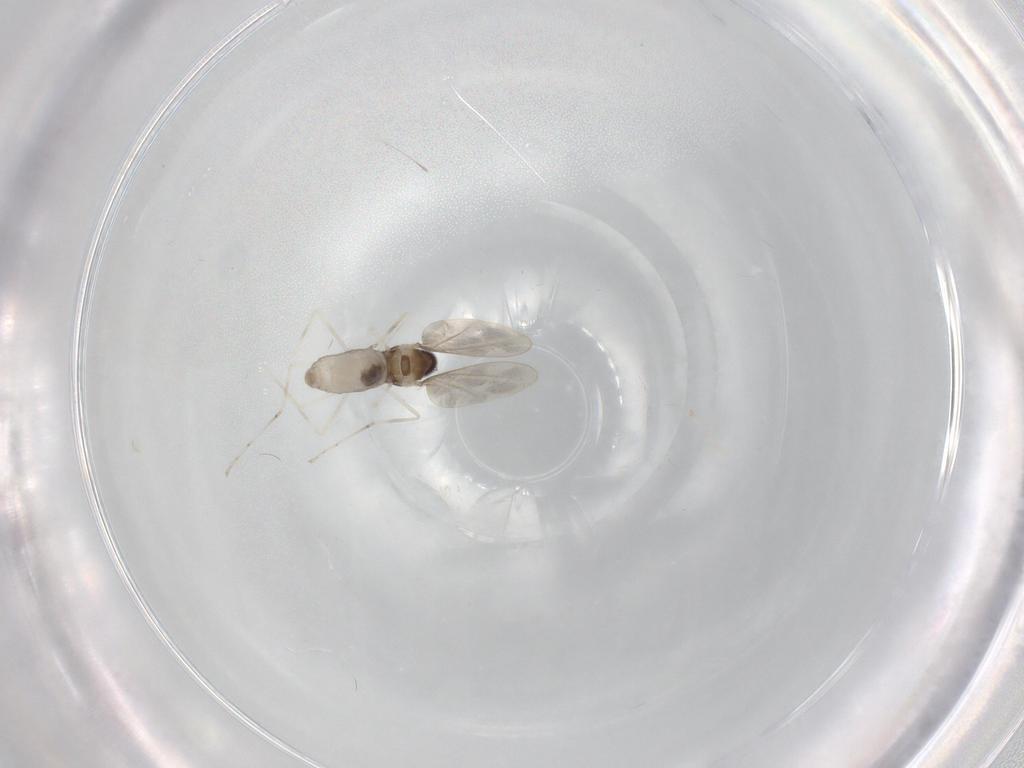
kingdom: Animalia
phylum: Arthropoda
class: Insecta
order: Diptera
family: Cecidomyiidae
